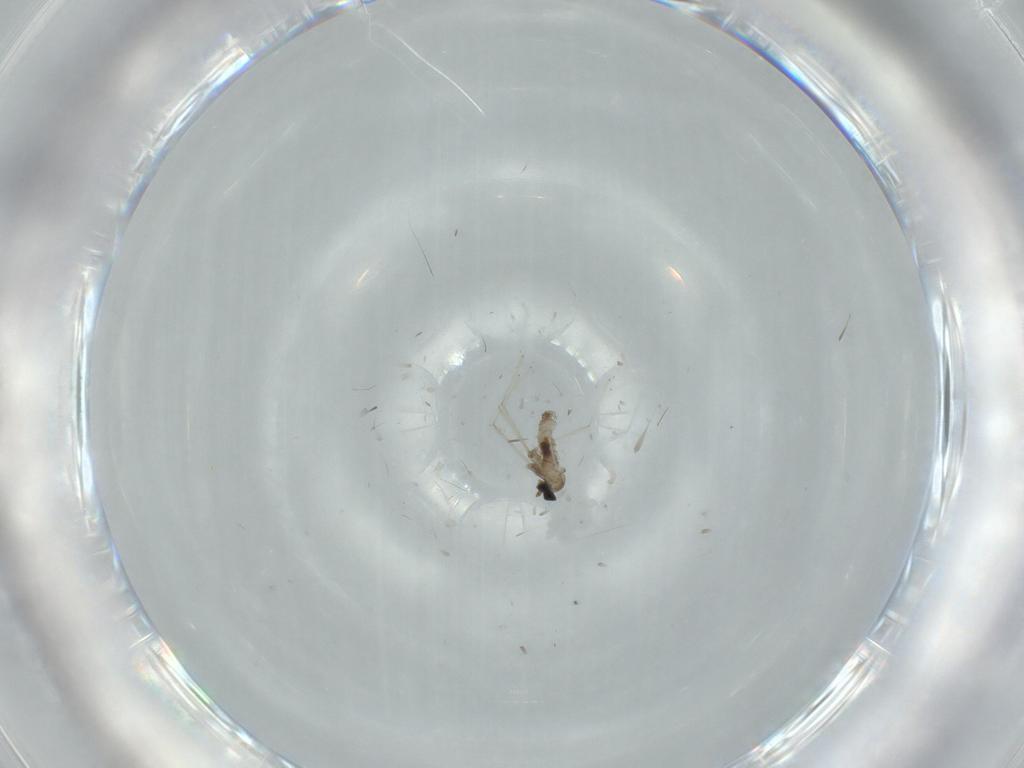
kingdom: Animalia
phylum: Arthropoda
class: Insecta
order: Diptera
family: Cecidomyiidae
